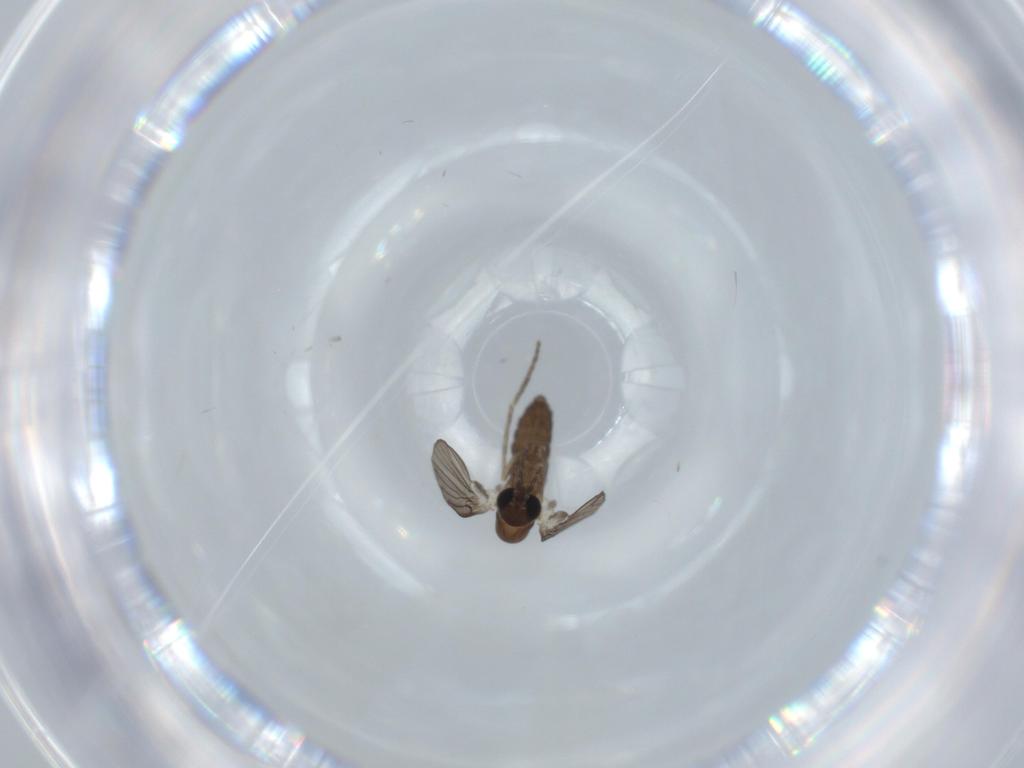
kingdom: Animalia
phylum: Arthropoda
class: Insecta
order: Diptera
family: Psychodidae
